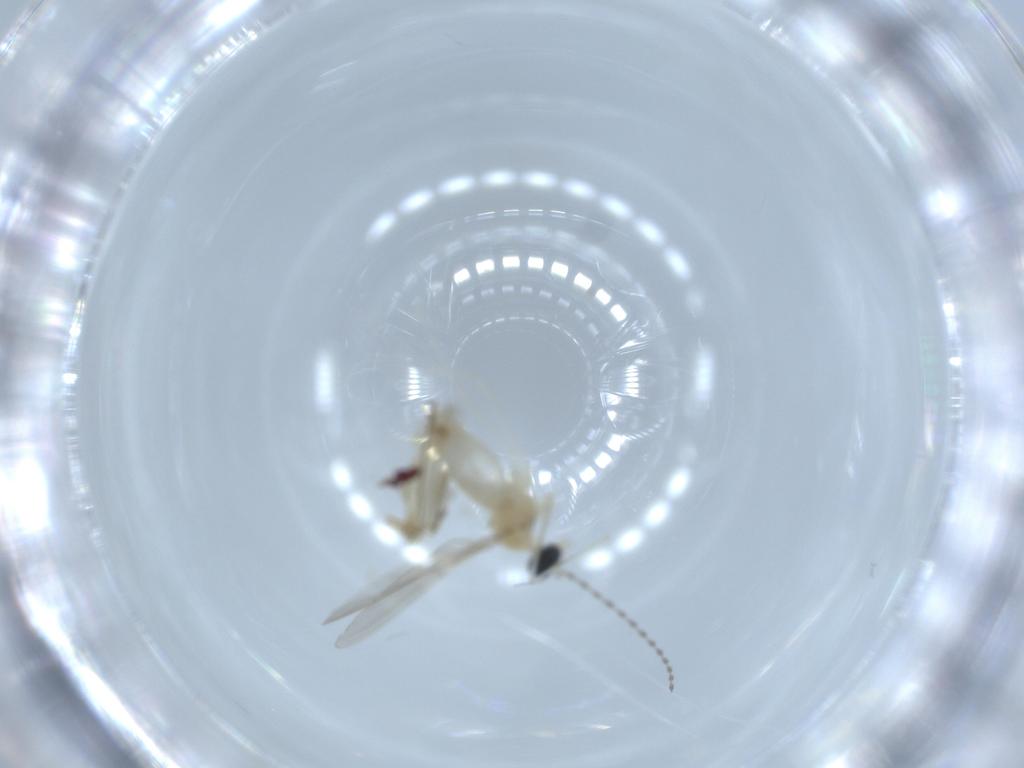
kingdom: Animalia
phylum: Arthropoda
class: Insecta
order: Diptera
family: Cecidomyiidae
